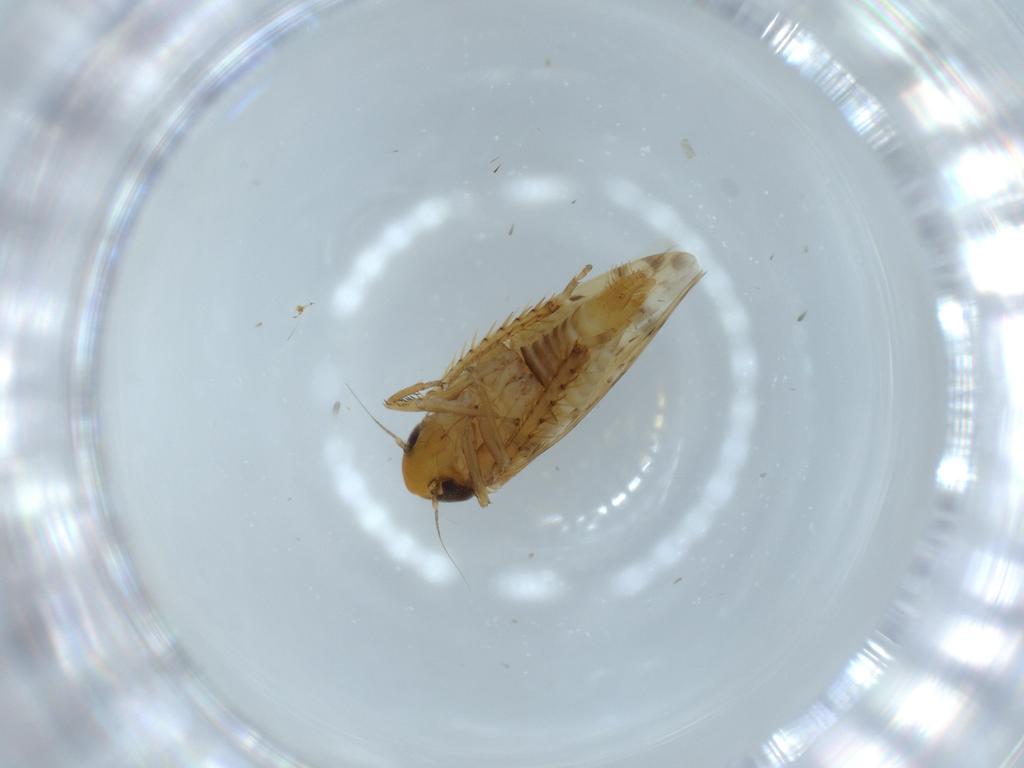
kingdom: Animalia
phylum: Arthropoda
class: Insecta
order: Hemiptera
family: Cicadellidae
